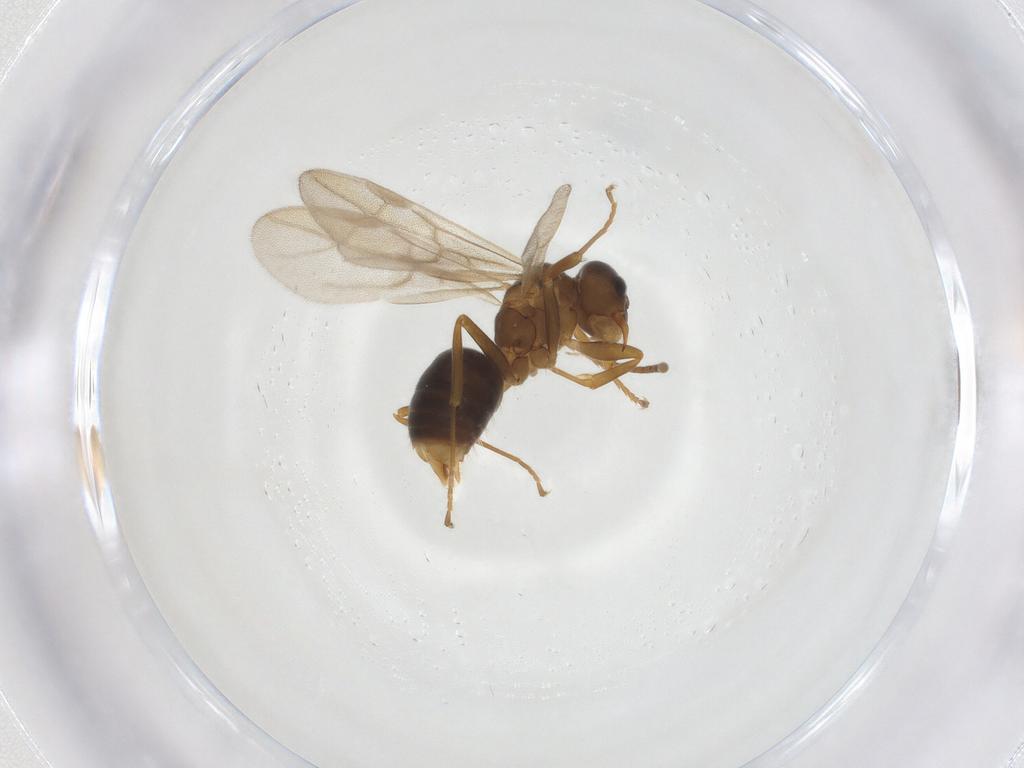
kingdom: Animalia
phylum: Arthropoda
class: Insecta
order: Hymenoptera
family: Formicidae
